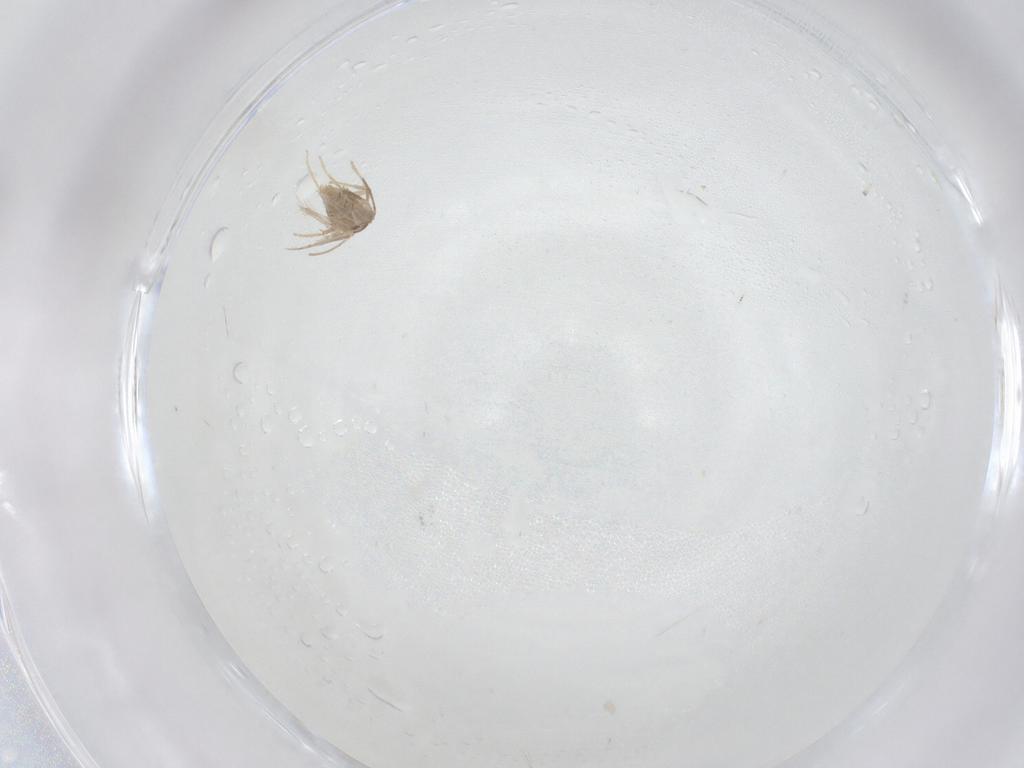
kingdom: Animalia
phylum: Arthropoda
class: Insecta
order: Lepidoptera
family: Nepticulidae
